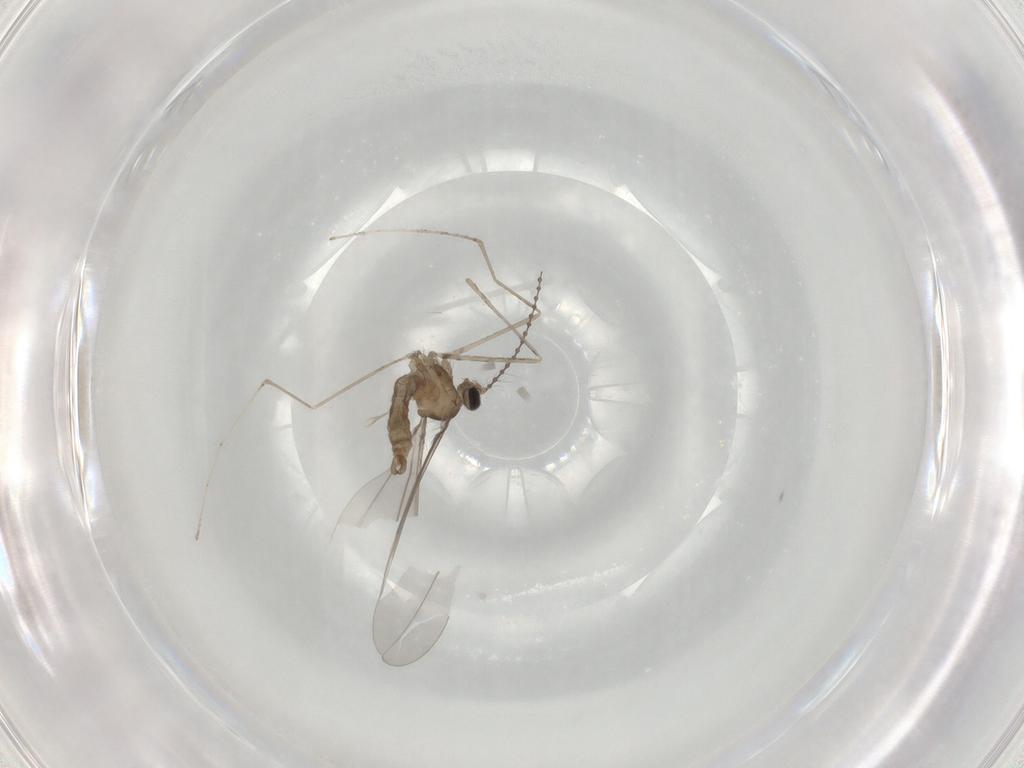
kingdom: Animalia
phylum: Arthropoda
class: Insecta
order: Diptera
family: Cecidomyiidae
